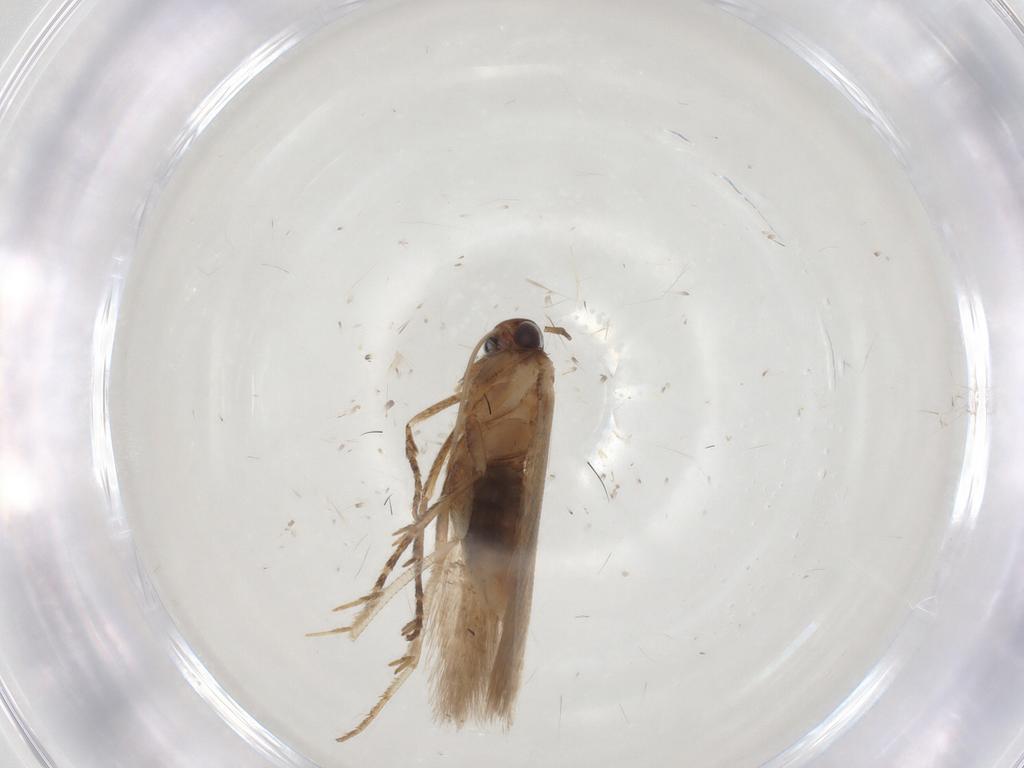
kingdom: Animalia
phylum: Arthropoda
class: Insecta
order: Lepidoptera
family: Gelechiidae
